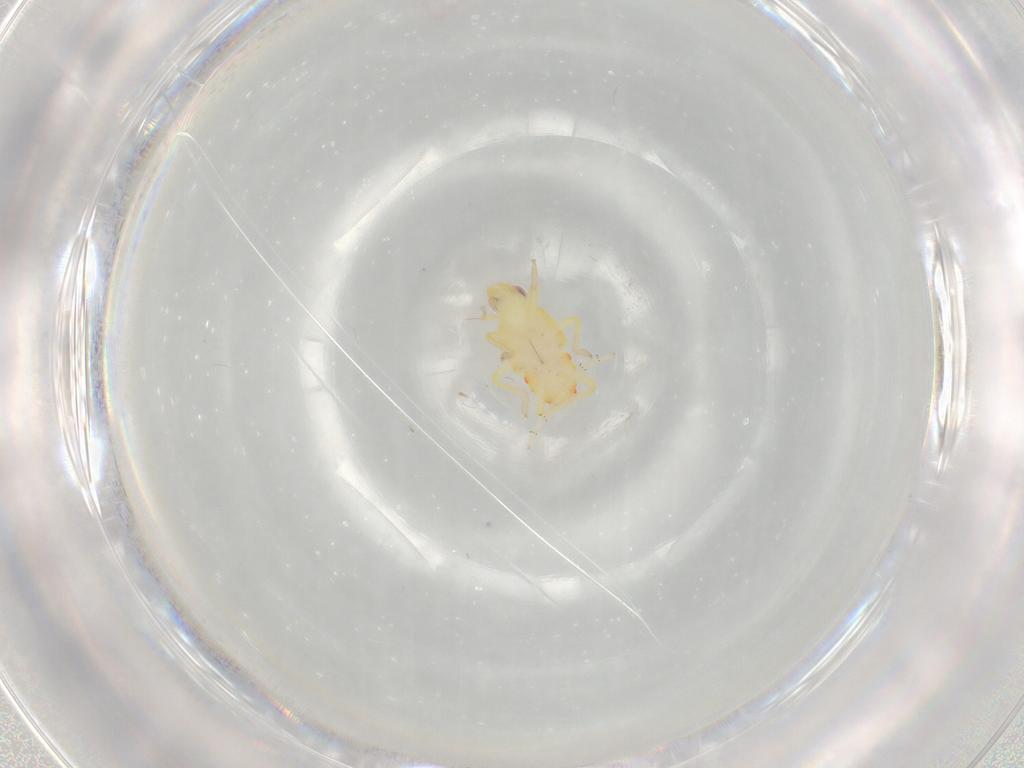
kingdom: Animalia
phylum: Arthropoda
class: Insecta
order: Hemiptera
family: Tropiduchidae
